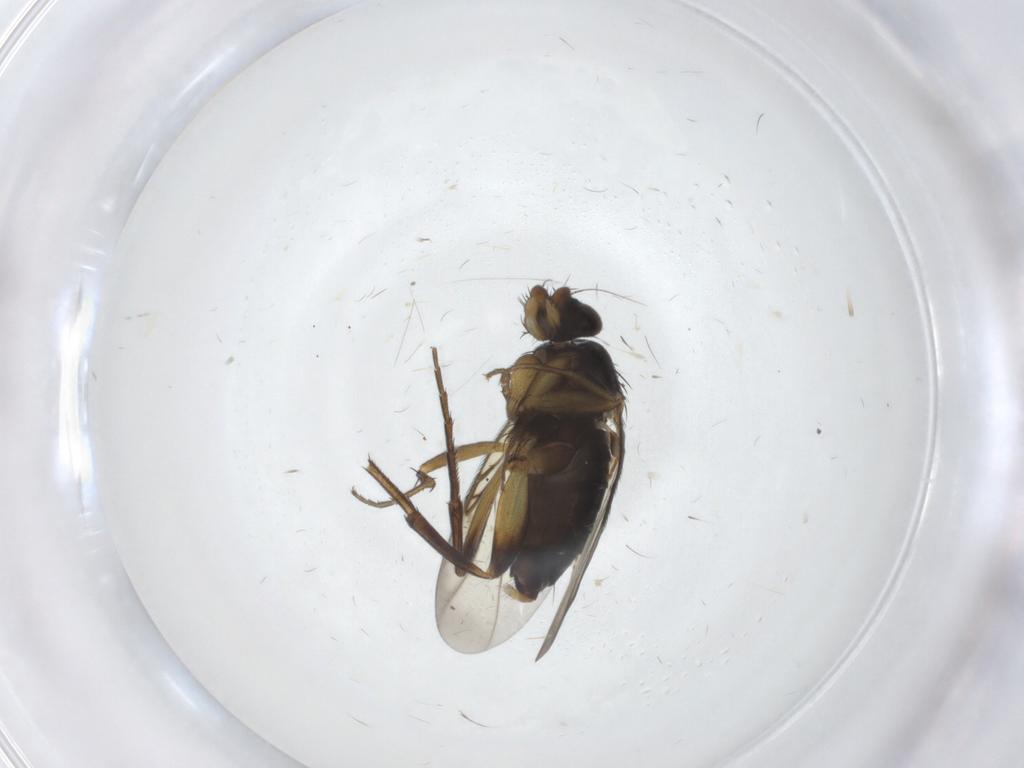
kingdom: Animalia
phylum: Arthropoda
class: Insecta
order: Diptera
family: Phoridae
